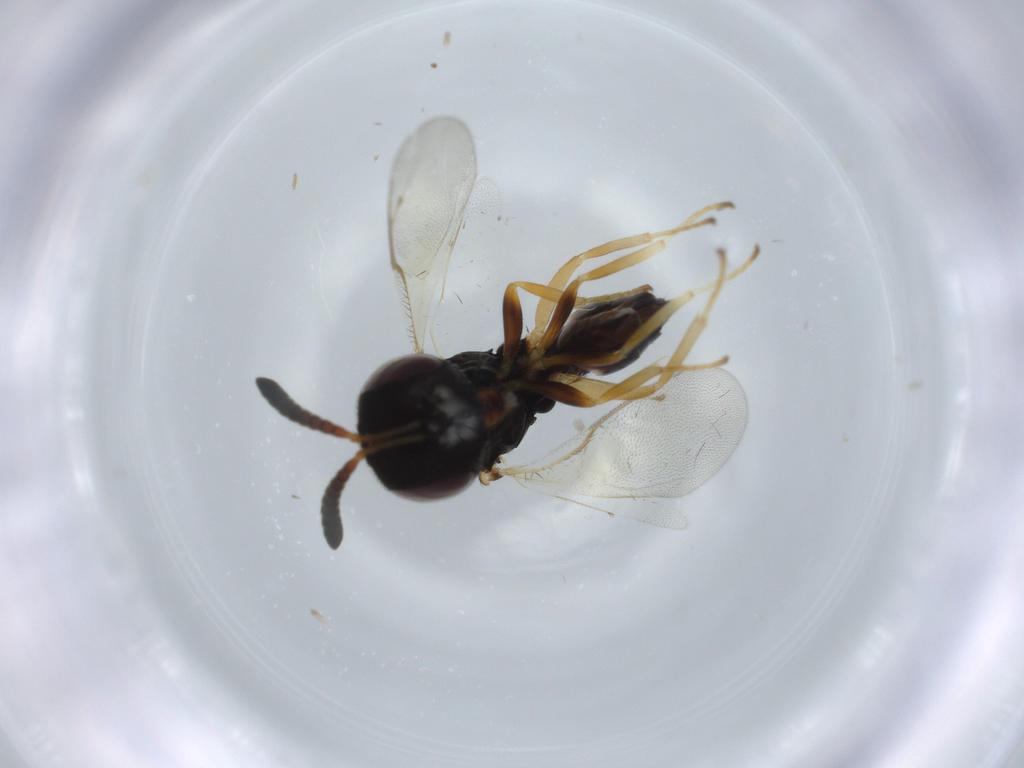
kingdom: Animalia
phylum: Arthropoda
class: Insecta
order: Hymenoptera
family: Pteromalidae
